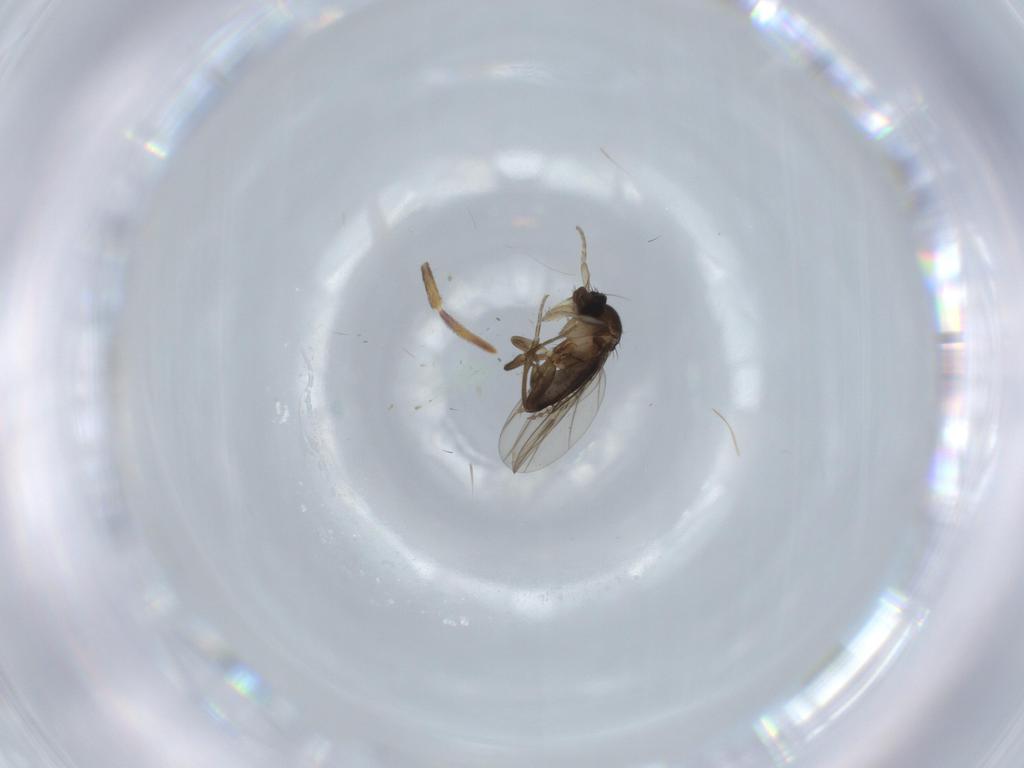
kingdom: Animalia
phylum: Arthropoda
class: Insecta
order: Diptera
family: Phoridae
